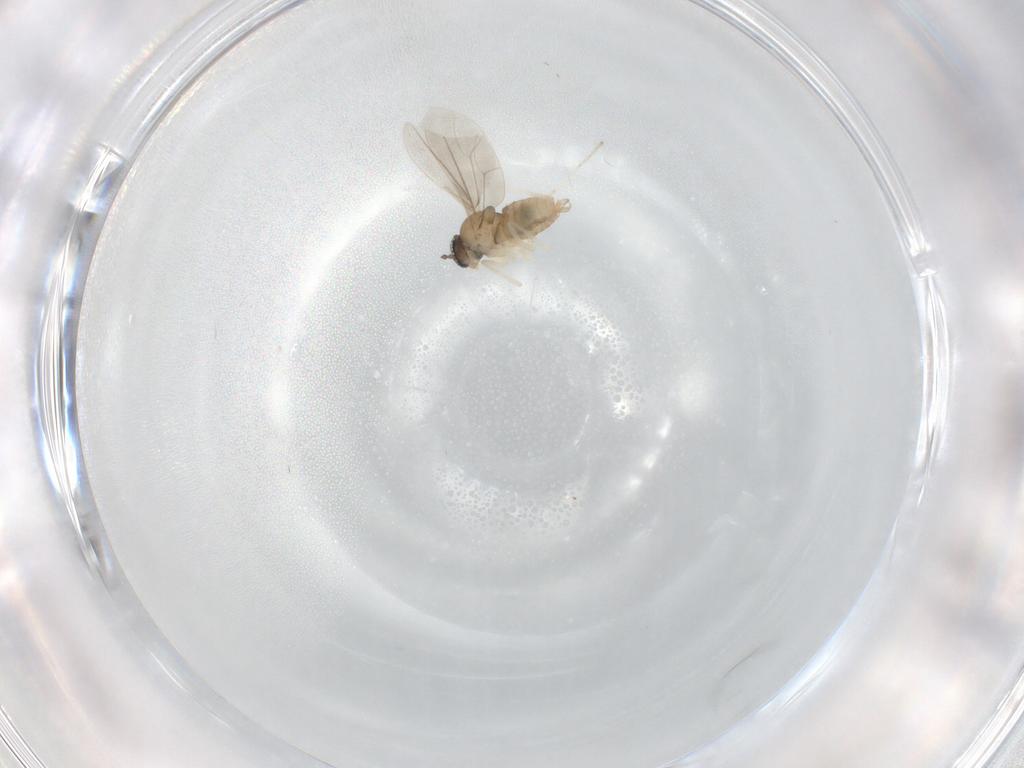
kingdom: Animalia
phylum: Arthropoda
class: Insecta
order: Diptera
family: Cecidomyiidae
